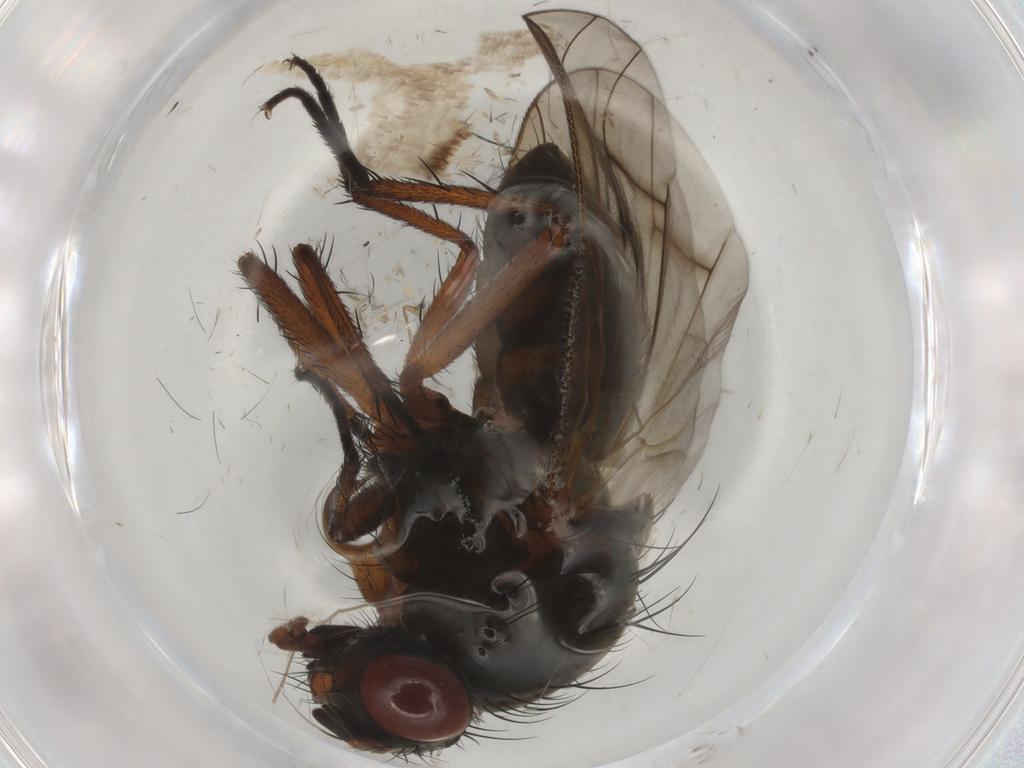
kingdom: Animalia
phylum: Arthropoda
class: Insecta
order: Diptera
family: Anthomyiidae
